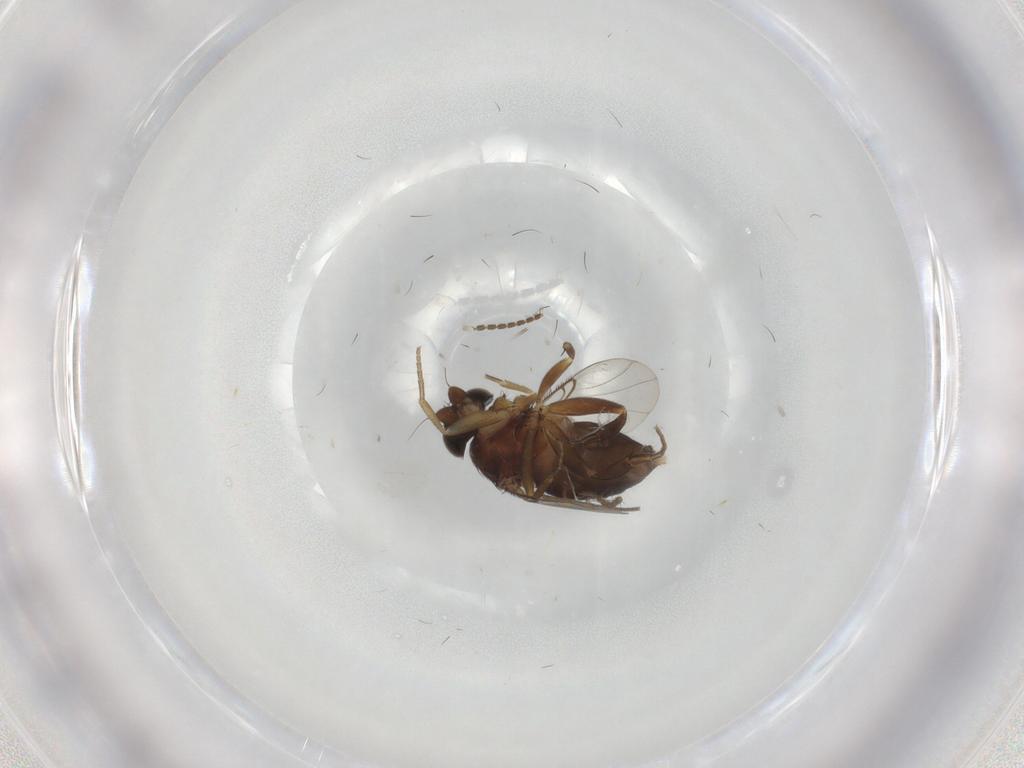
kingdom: Animalia
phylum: Arthropoda
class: Insecta
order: Diptera
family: Phoridae
